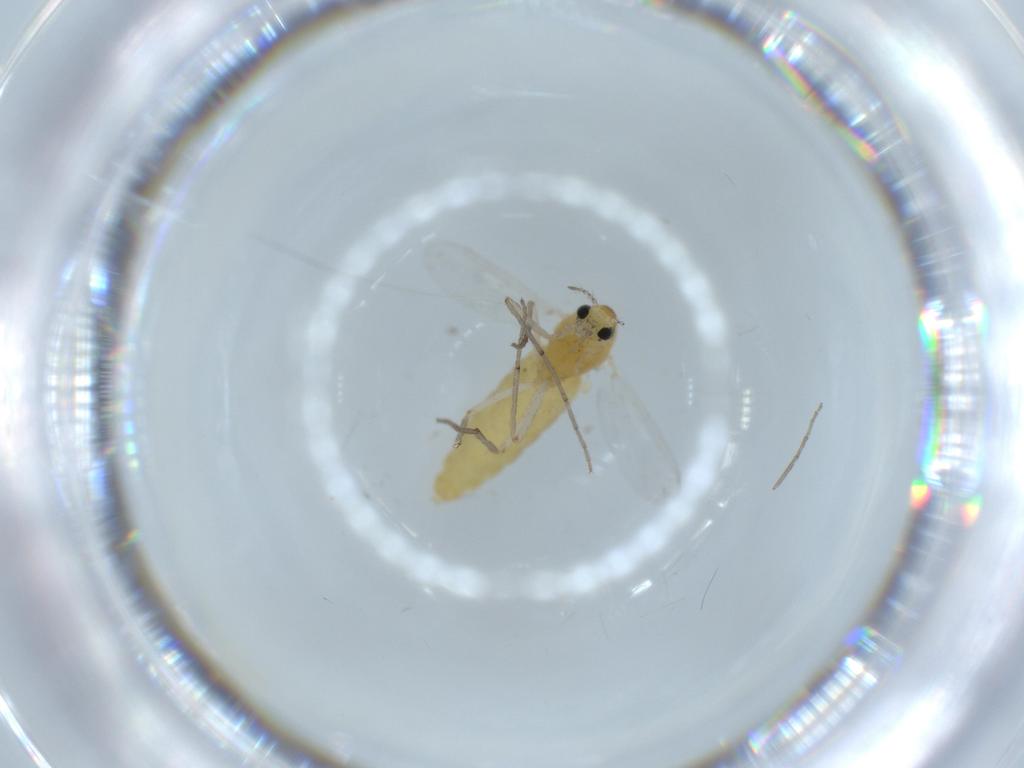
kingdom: Animalia
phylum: Arthropoda
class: Insecta
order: Diptera
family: Chironomidae
